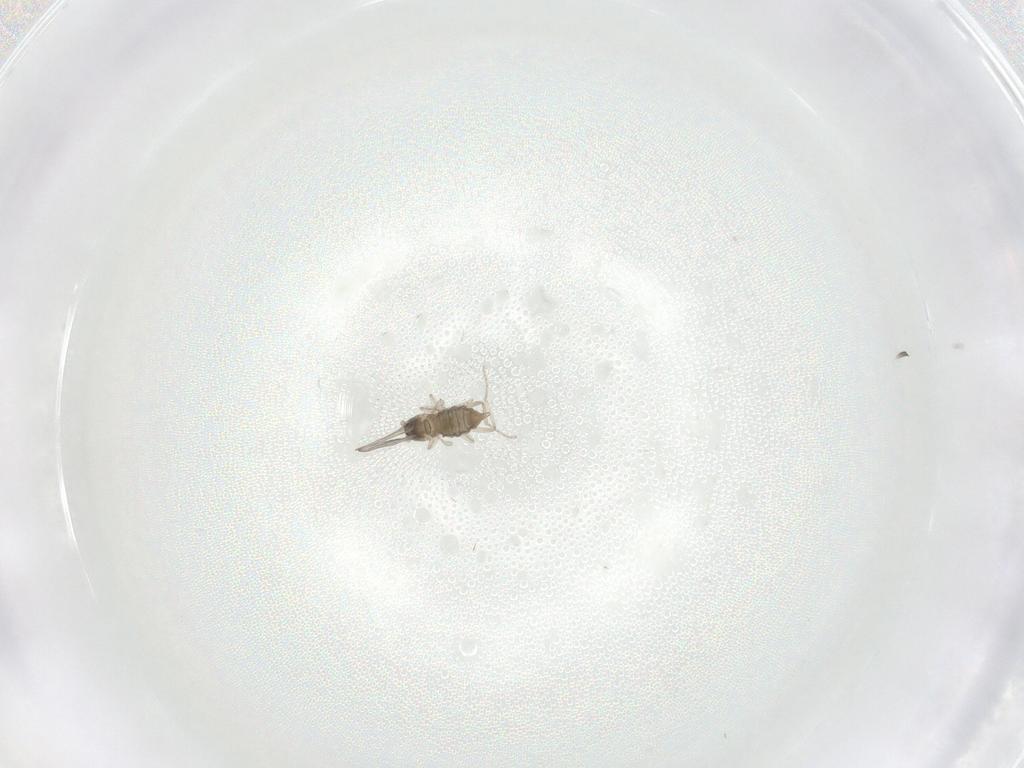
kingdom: Animalia
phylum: Arthropoda
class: Insecta
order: Diptera
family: Cecidomyiidae
